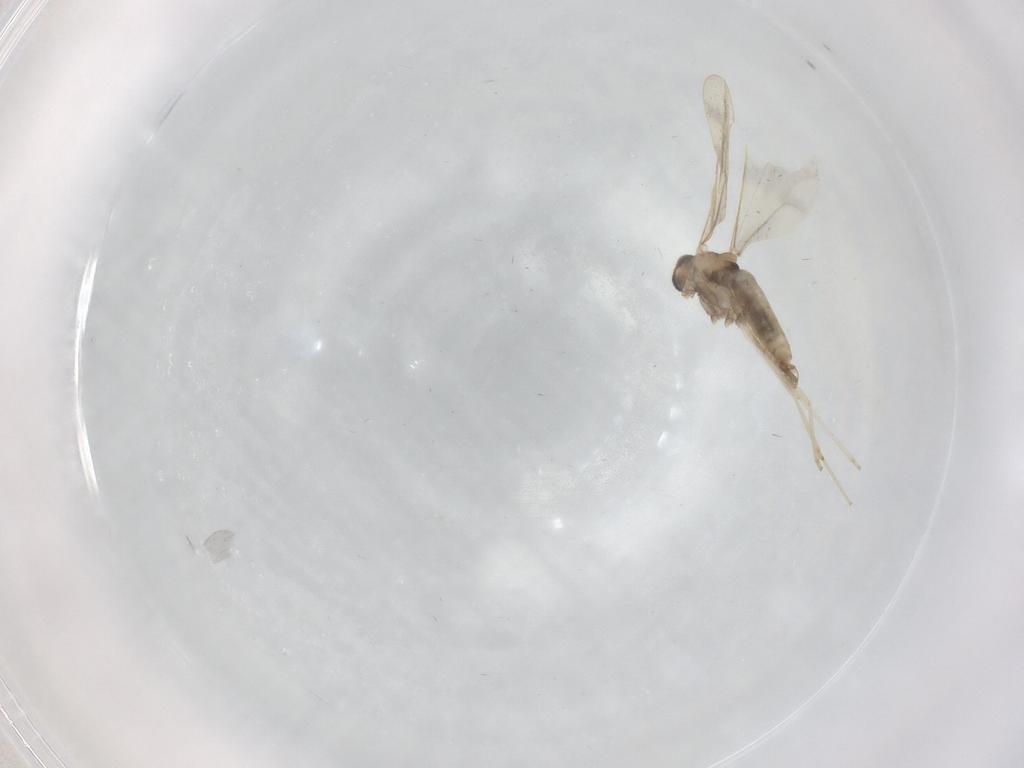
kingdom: Animalia
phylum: Arthropoda
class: Insecta
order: Diptera
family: Cecidomyiidae
